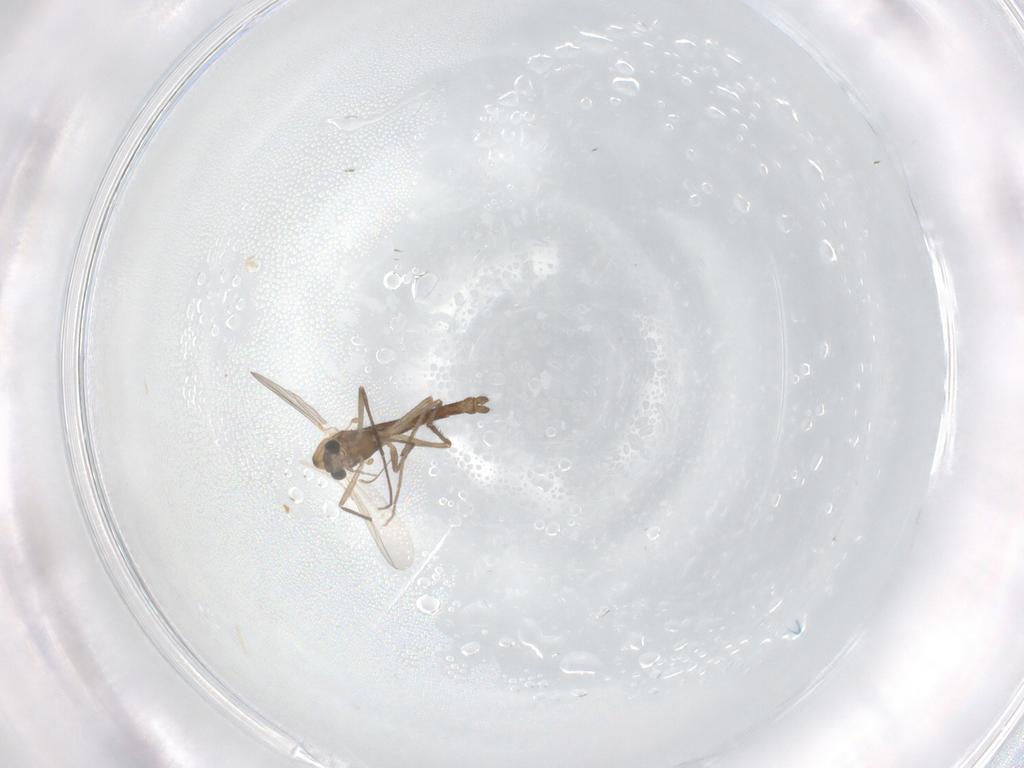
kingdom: Animalia
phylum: Arthropoda
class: Insecta
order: Diptera
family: Chironomidae
